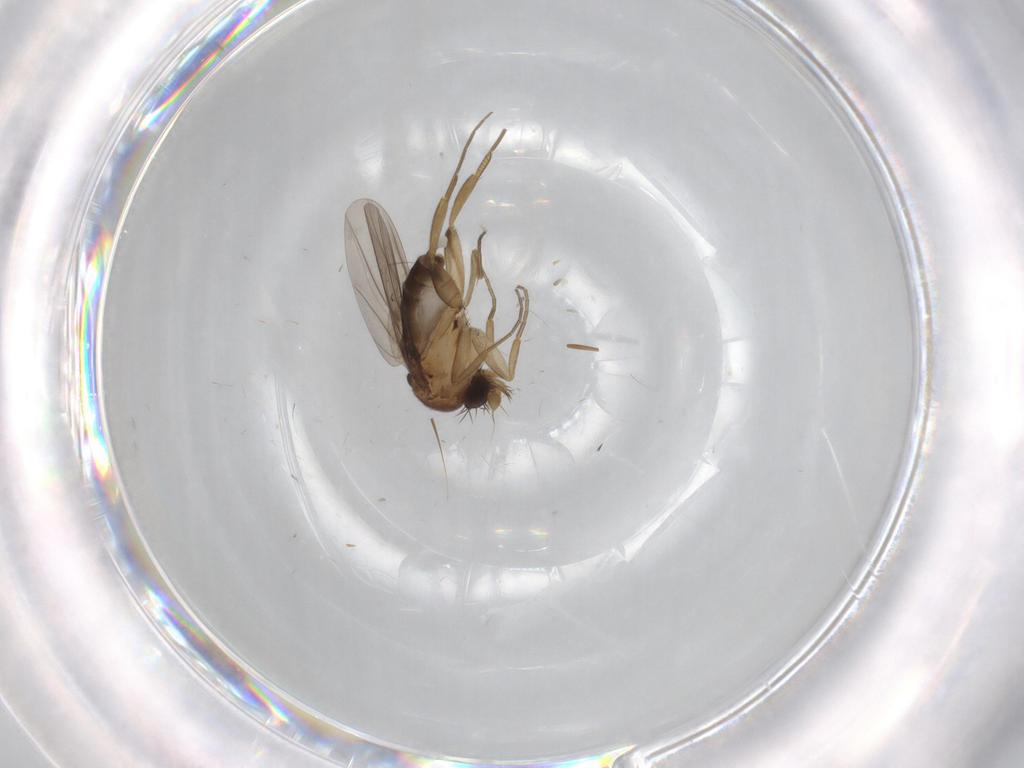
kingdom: Animalia
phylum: Arthropoda
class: Insecta
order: Diptera
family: Phoridae
